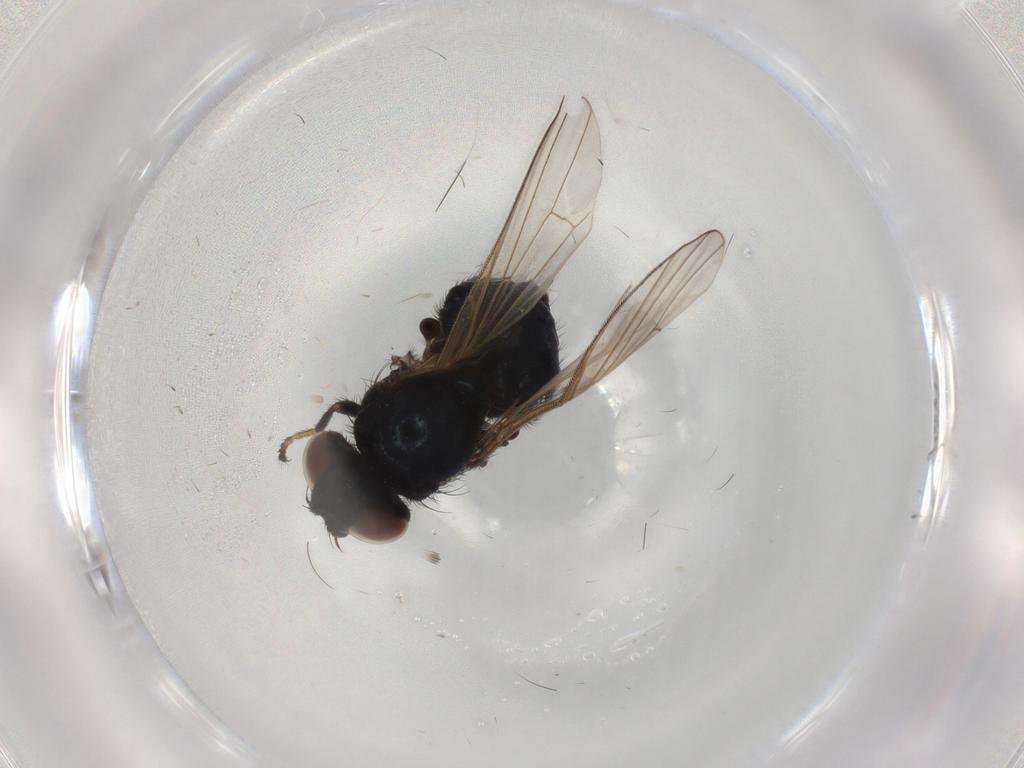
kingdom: Animalia
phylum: Arthropoda
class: Insecta
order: Diptera
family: Lonchaeidae
